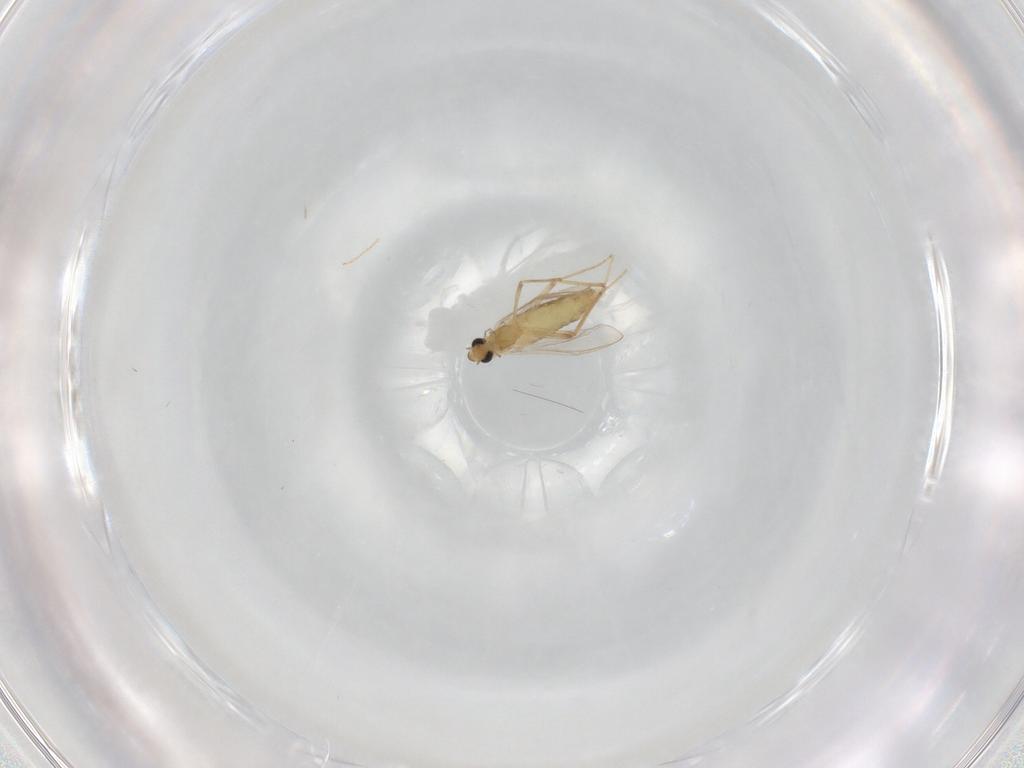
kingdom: Animalia
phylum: Arthropoda
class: Insecta
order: Diptera
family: Chironomidae
